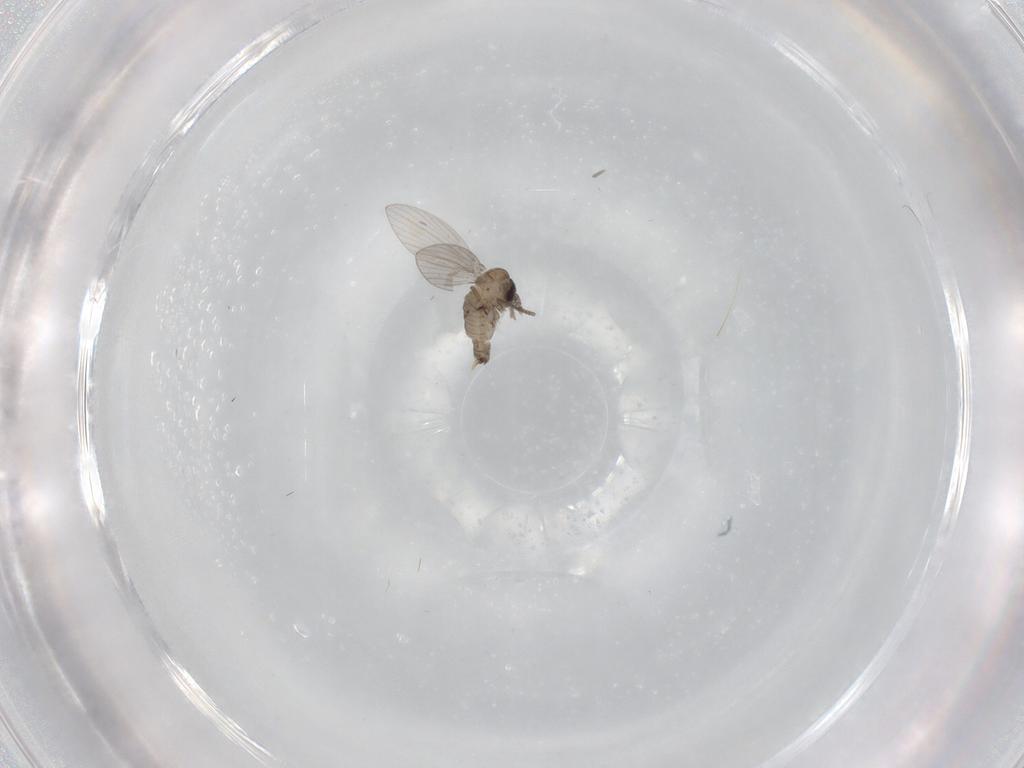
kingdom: Animalia
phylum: Arthropoda
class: Insecta
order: Diptera
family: Psychodidae
